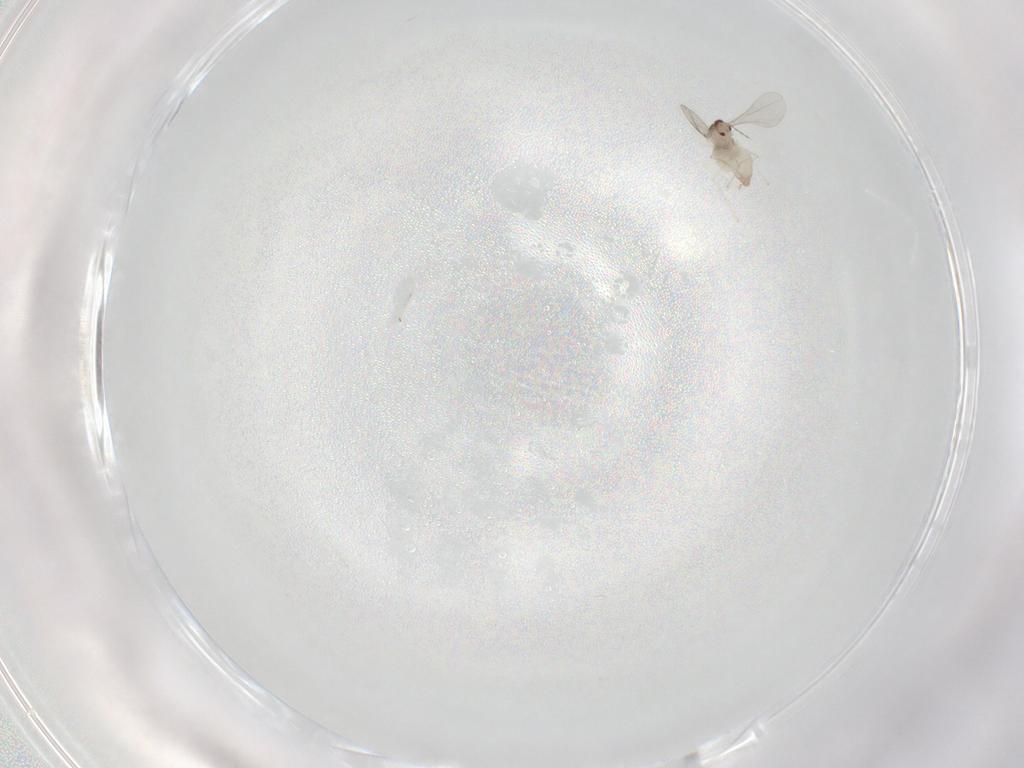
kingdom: Animalia
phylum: Arthropoda
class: Insecta
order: Diptera
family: Cecidomyiidae
